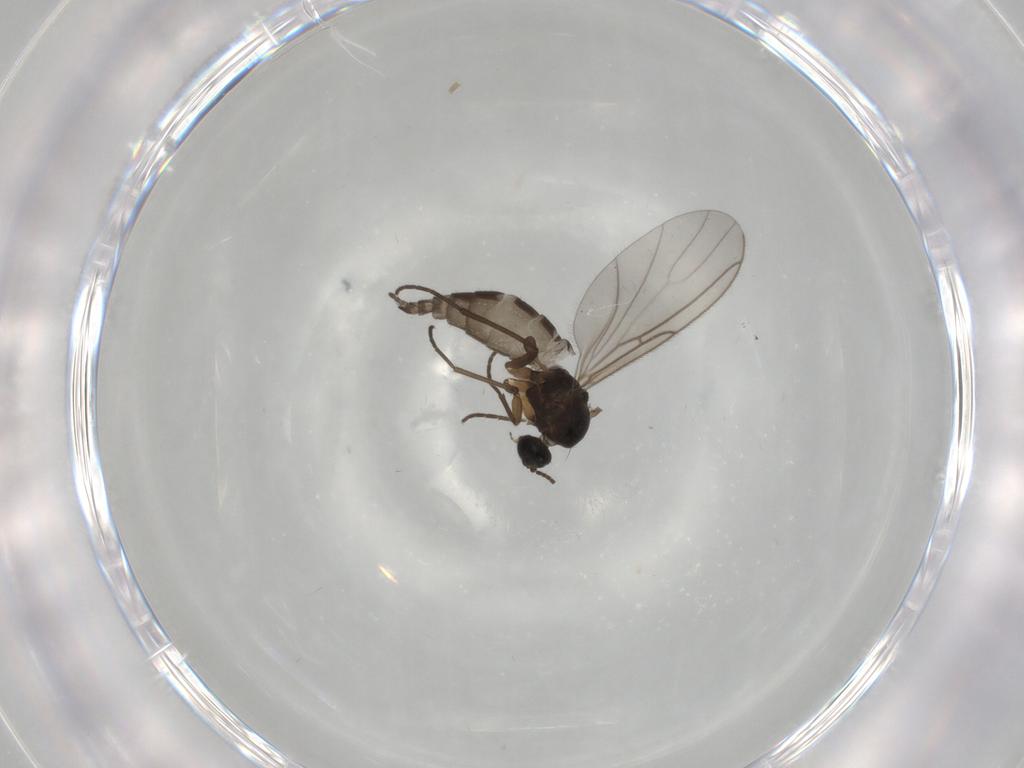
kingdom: Animalia
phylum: Arthropoda
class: Insecta
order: Diptera
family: Sciaridae
